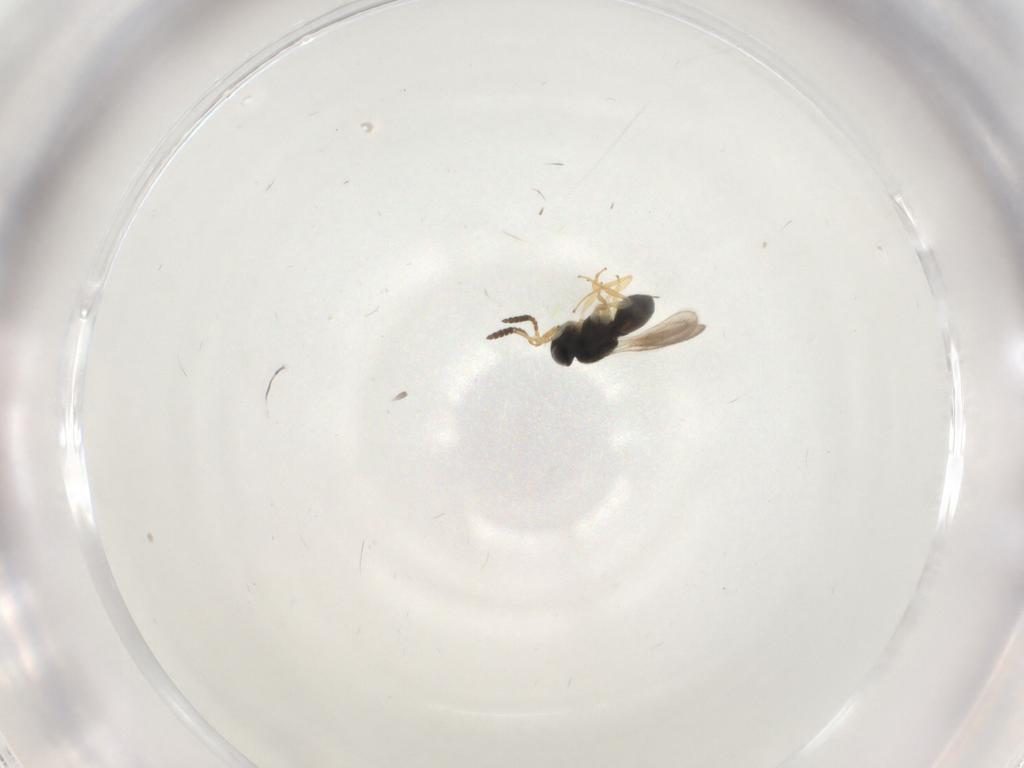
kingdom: Animalia
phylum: Arthropoda
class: Insecta
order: Hymenoptera
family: Scelionidae
